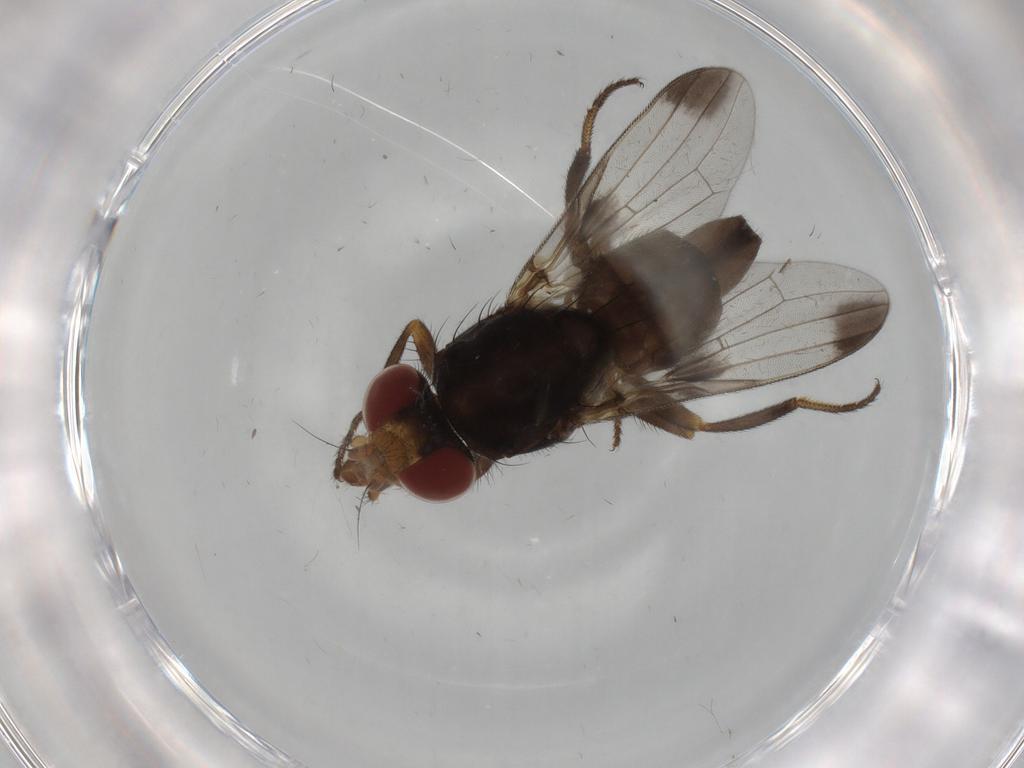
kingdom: Animalia
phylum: Arthropoda
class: Insecta
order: Diptera
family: Ulidiidae
